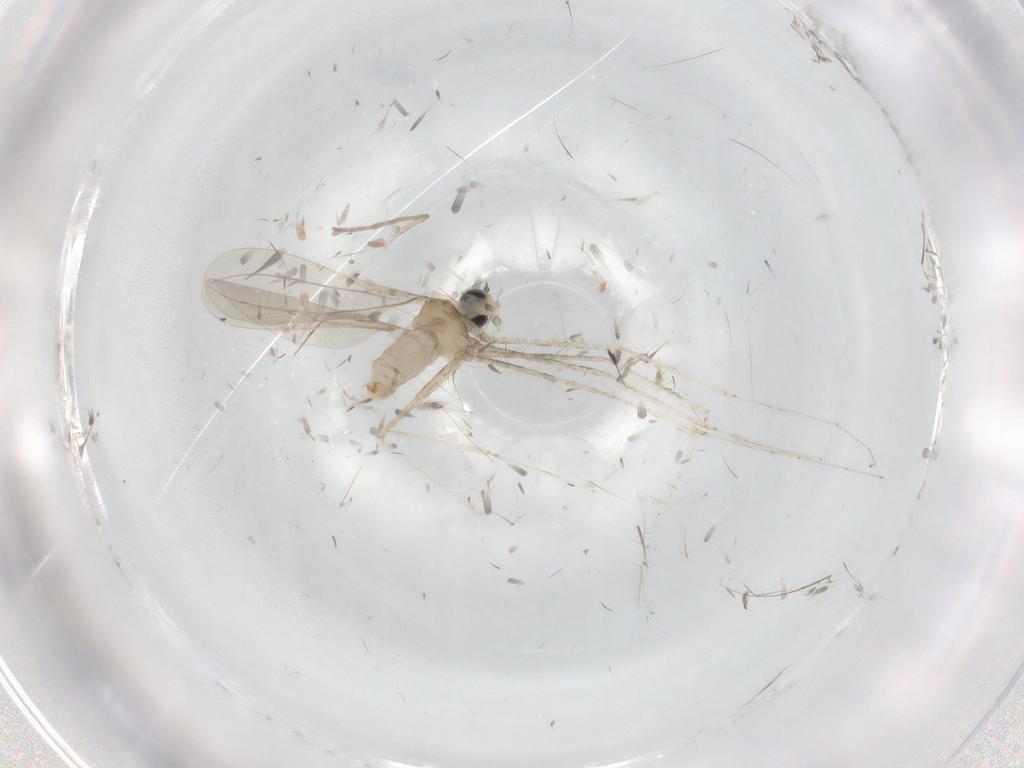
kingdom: Animalia
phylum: Arthropoda
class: Insecta
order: Diptera
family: Cecidomyiidae
